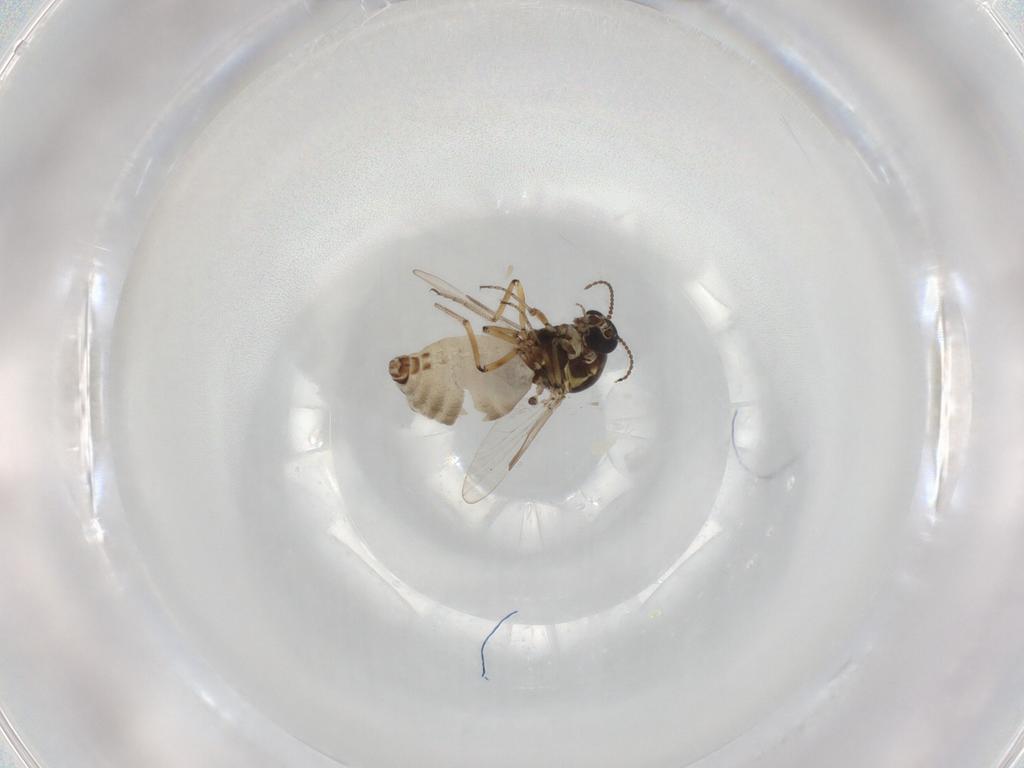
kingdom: Animalia
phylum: Arthropoda
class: Insecta
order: Diptera
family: Ceratopogonidae
